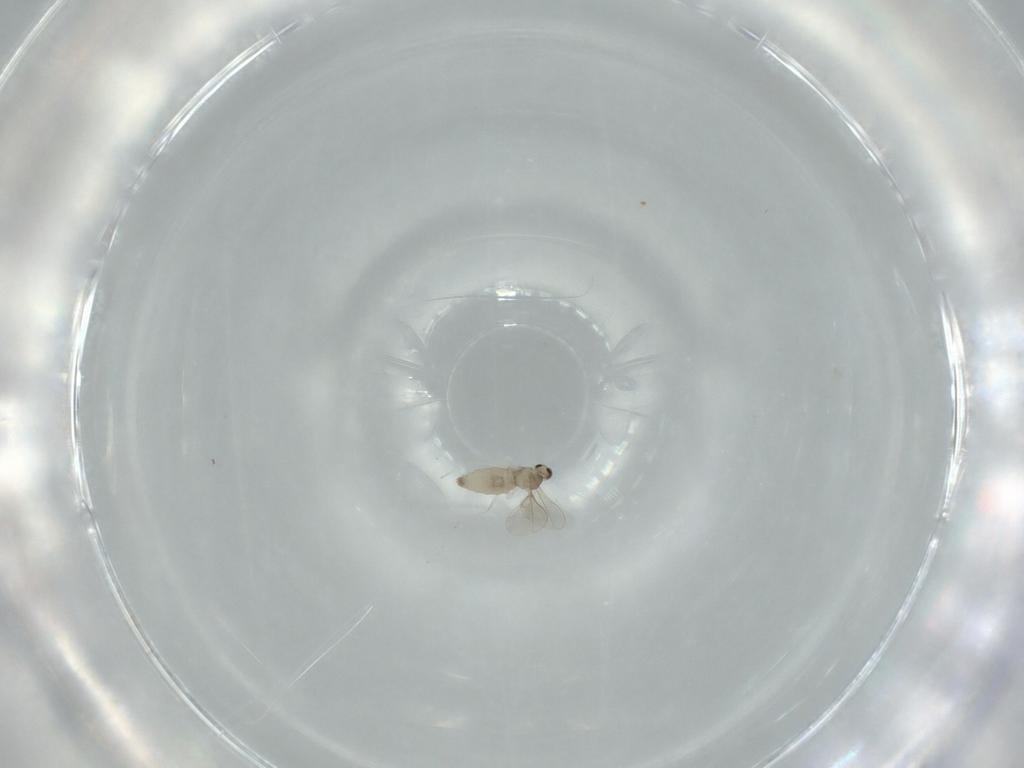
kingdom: Animalia
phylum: Arthropoda
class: Insecta
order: Diptera
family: Cecidomyiidae
